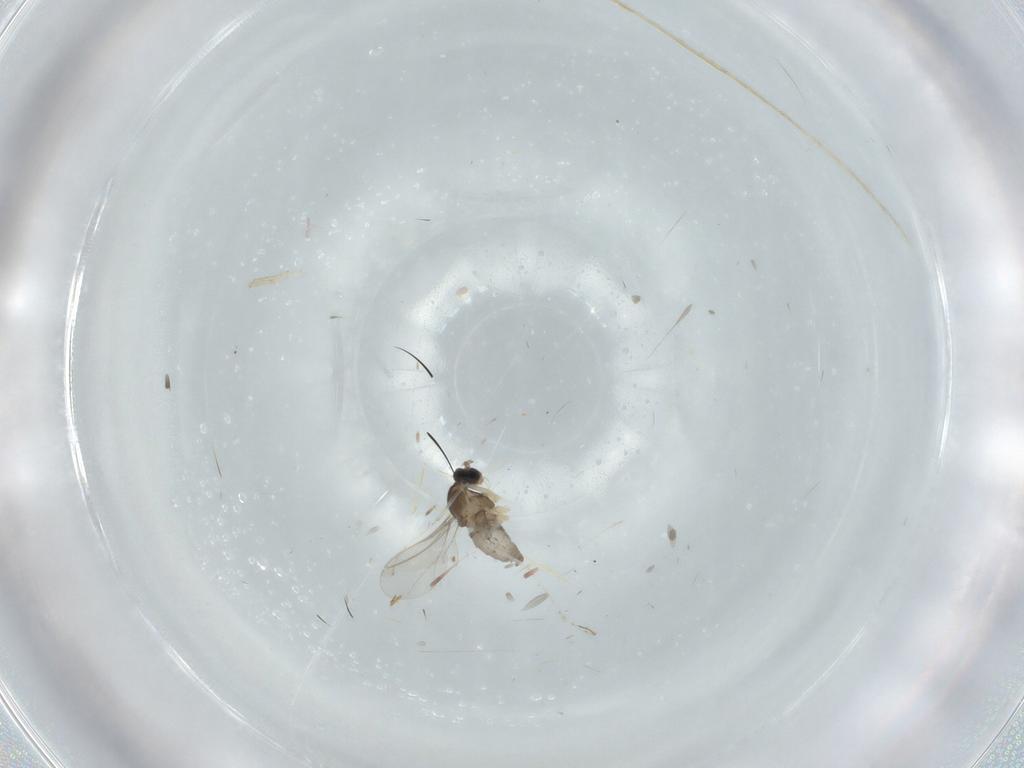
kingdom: Animalia
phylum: Arthropoda
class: Insecta
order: Diptera
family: Cecidomyiidae
